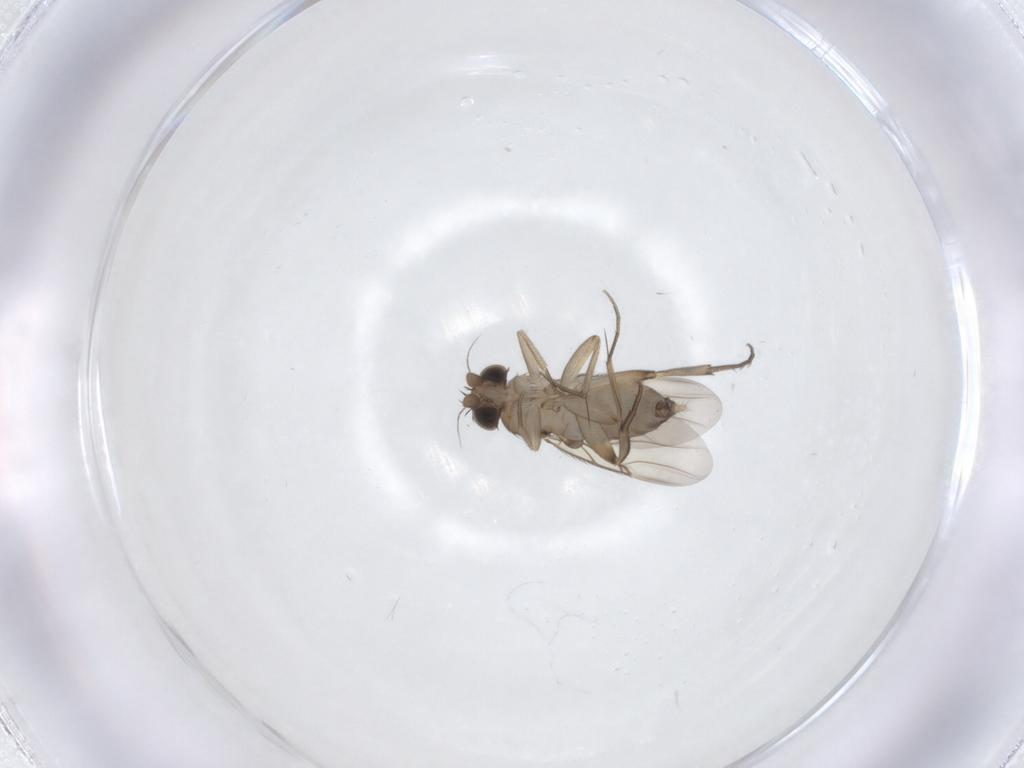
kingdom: Animalia
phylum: Arthropoda
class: Insecta
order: Diptera
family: Phoridae
